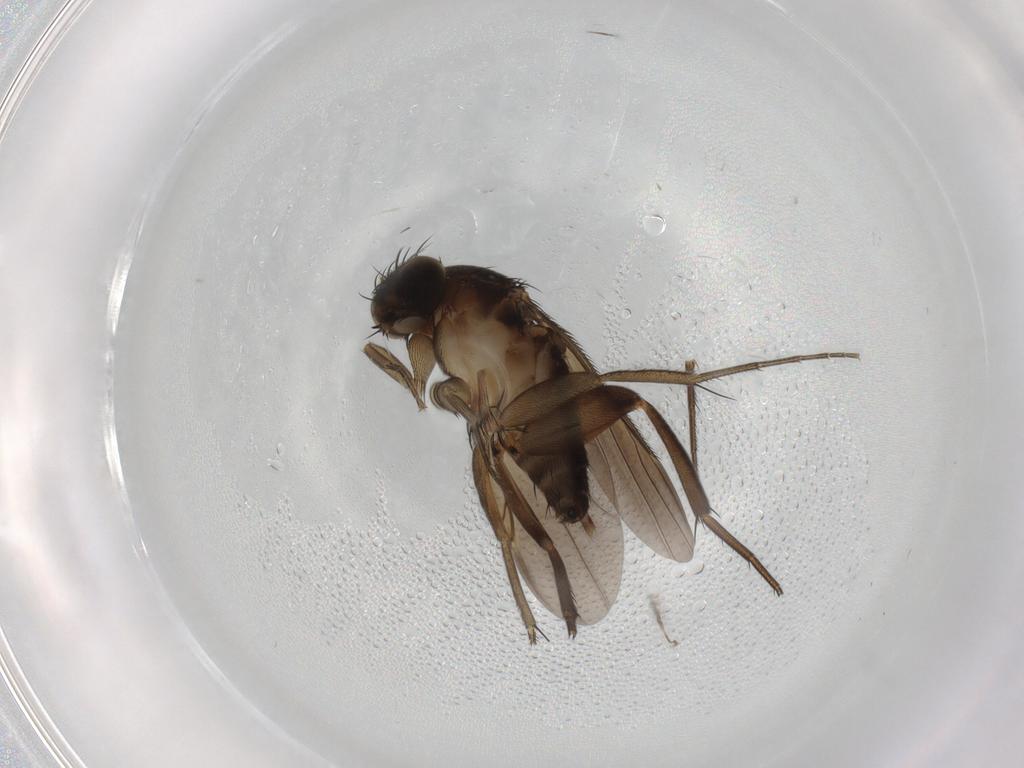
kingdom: Animalia
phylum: Arthropoda
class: Insecta
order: Diptera
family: Phoridae
